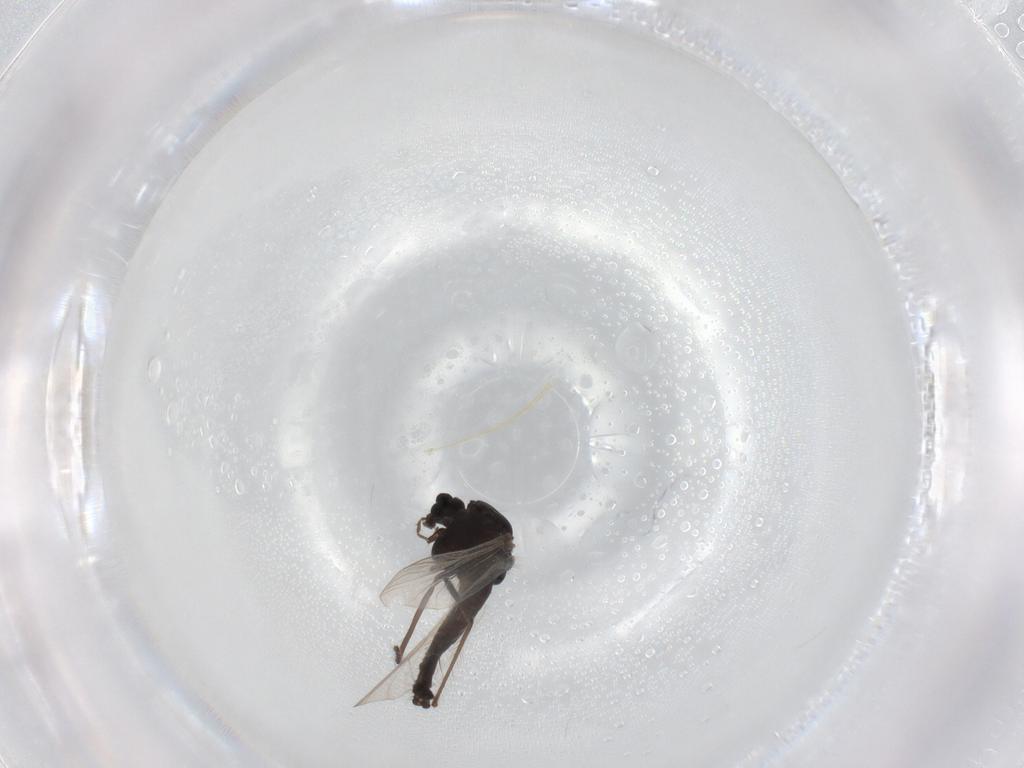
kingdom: Animalia
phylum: Arthropoda
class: Insecta
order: Diptera
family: Chironomidae
